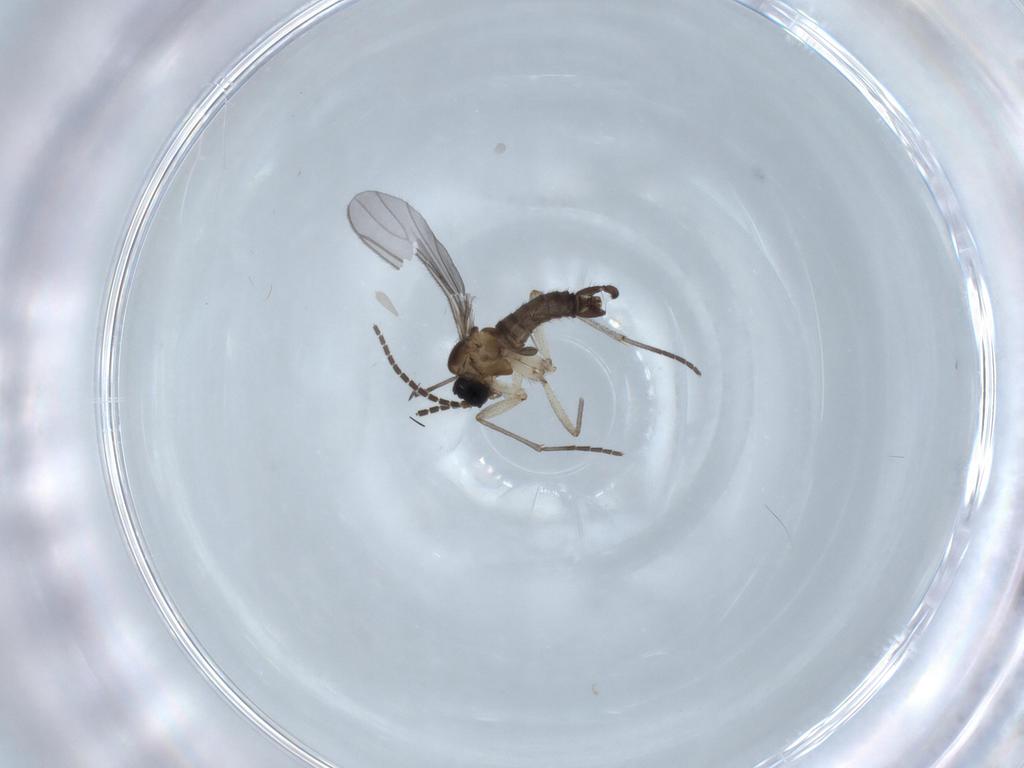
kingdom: Animalia
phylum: Arthropoda
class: Insecta
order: Diptera
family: Sciaridae
